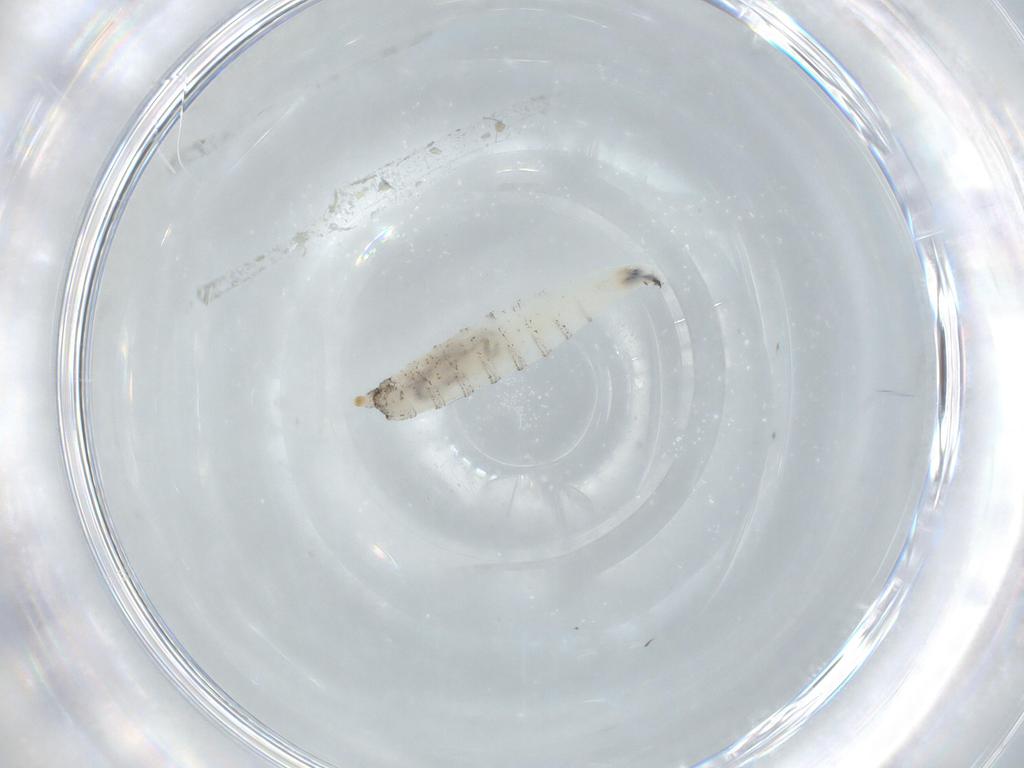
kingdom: Animalia
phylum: Arthropoda
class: Insecta
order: Diptera
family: Drosophilidae
